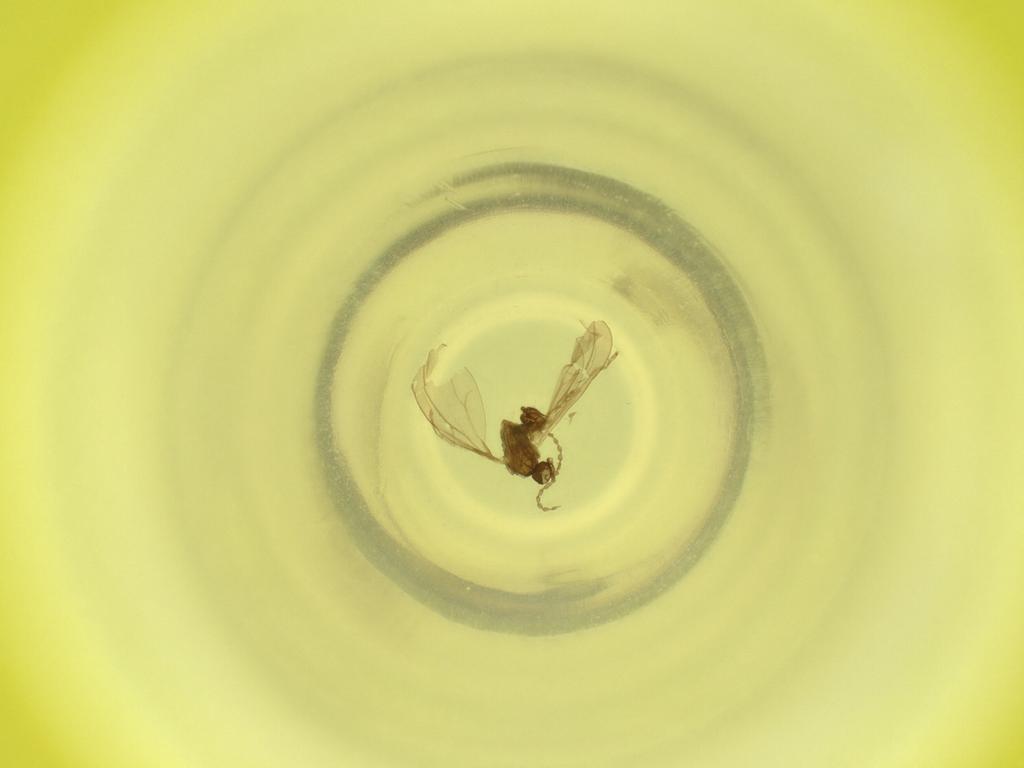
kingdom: Animalia
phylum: Arthropoda
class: Insecta
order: Diptera
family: Cecidomyiidae
